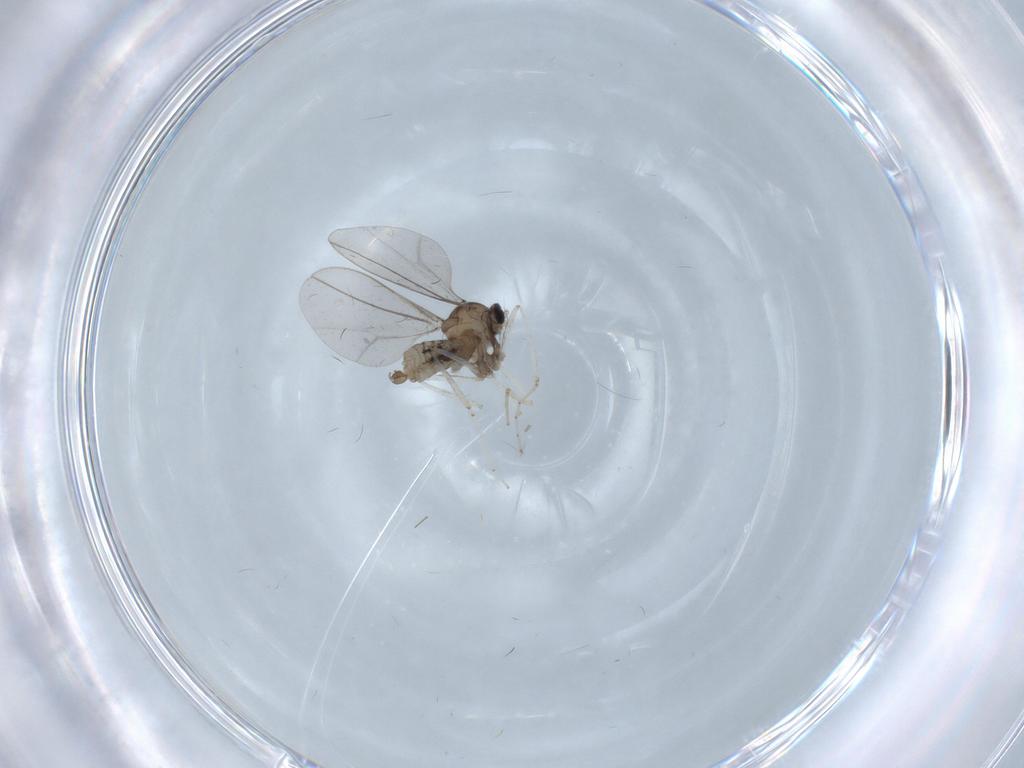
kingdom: Animalia
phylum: Arthropoda
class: Insecta
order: Diptera
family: Cecidomyiidae
